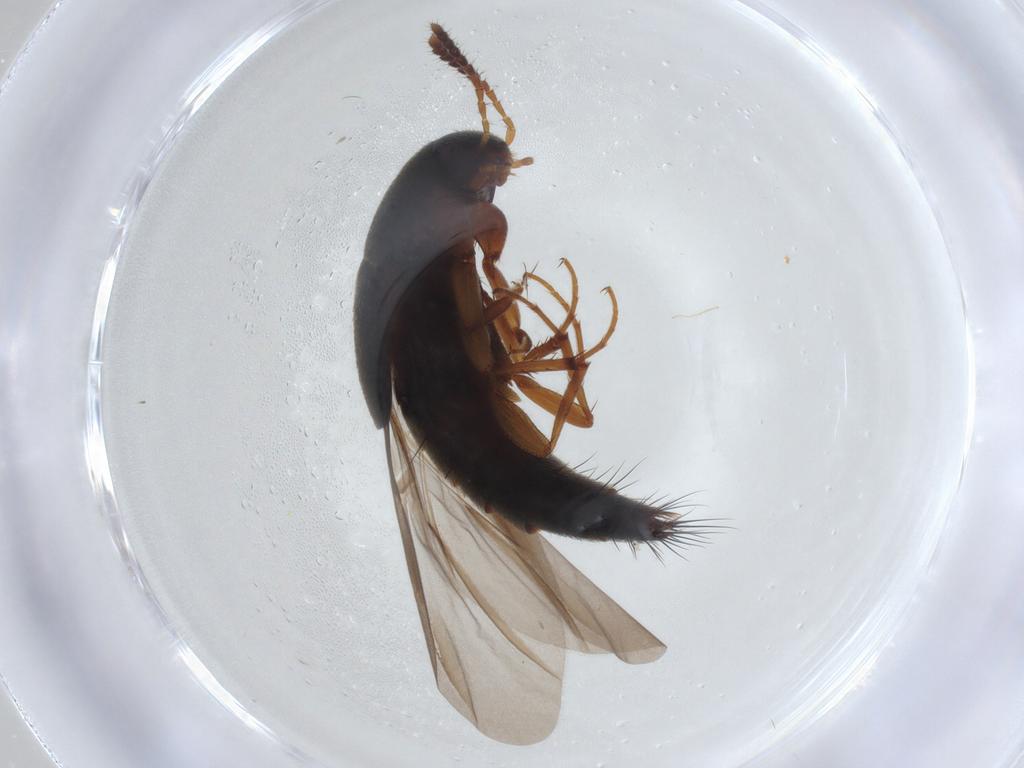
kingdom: Animalia
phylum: Arthropoda
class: Insecta
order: Coleoptera
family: Staphylinidae
